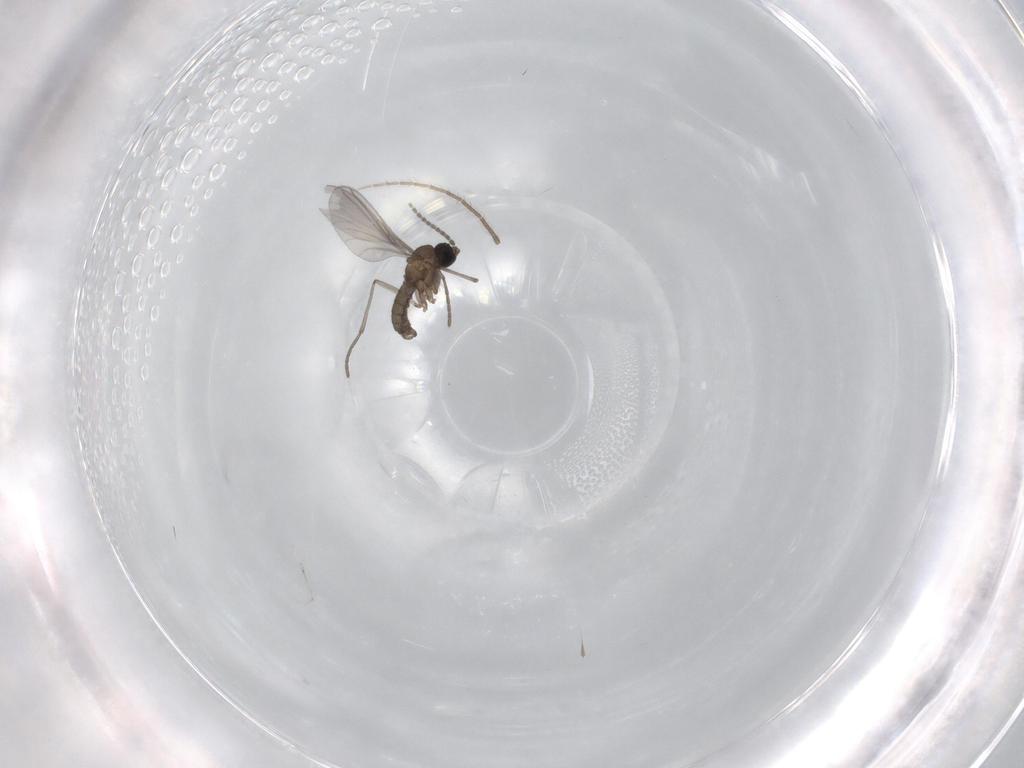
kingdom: Animalia
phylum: Arthropoda
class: Insecta
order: Diptera
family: Sciaridae
